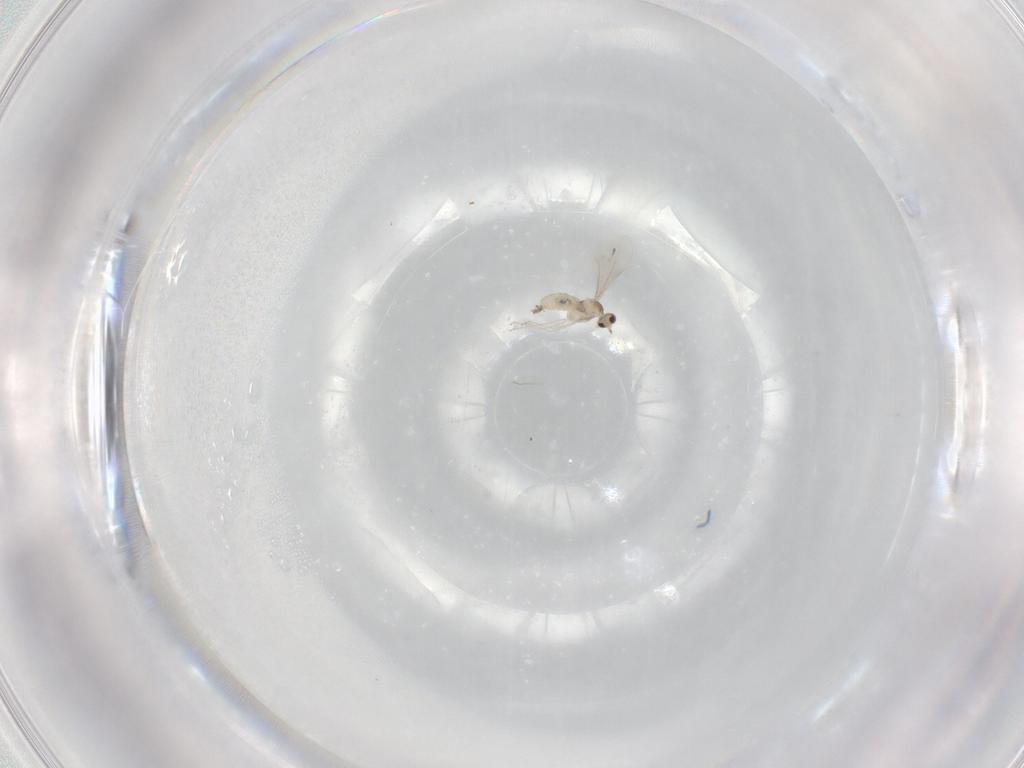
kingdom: Animalia
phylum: Arthropoda
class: Insecta
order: Diptera
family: Cecidomyiidae
